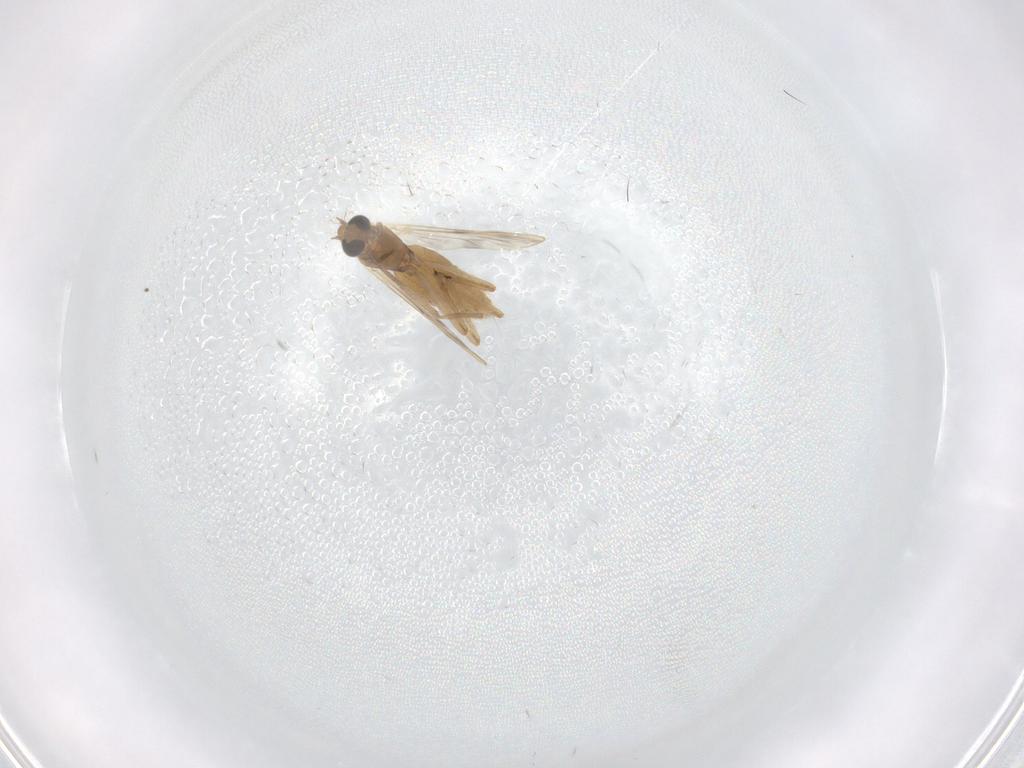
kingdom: Animalia
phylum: Arthropoda
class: Insecta
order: Diptera
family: Chironomidae
